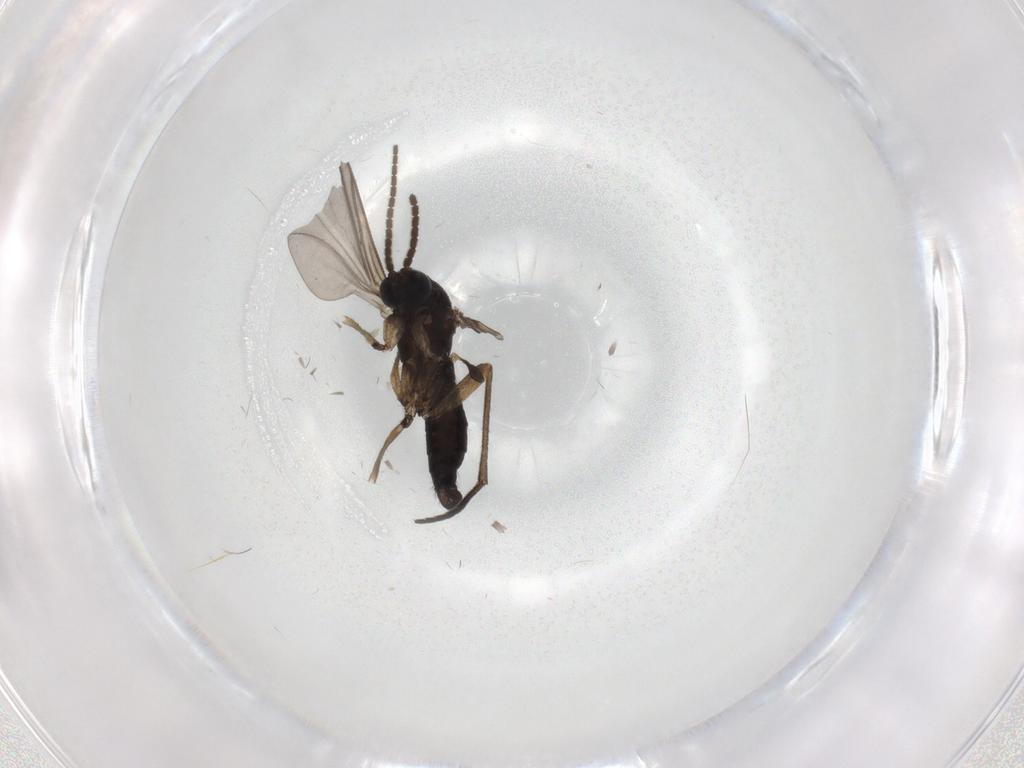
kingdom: Animalia
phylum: Arthropoda
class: Insecta
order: Diptera
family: Sciaridae
